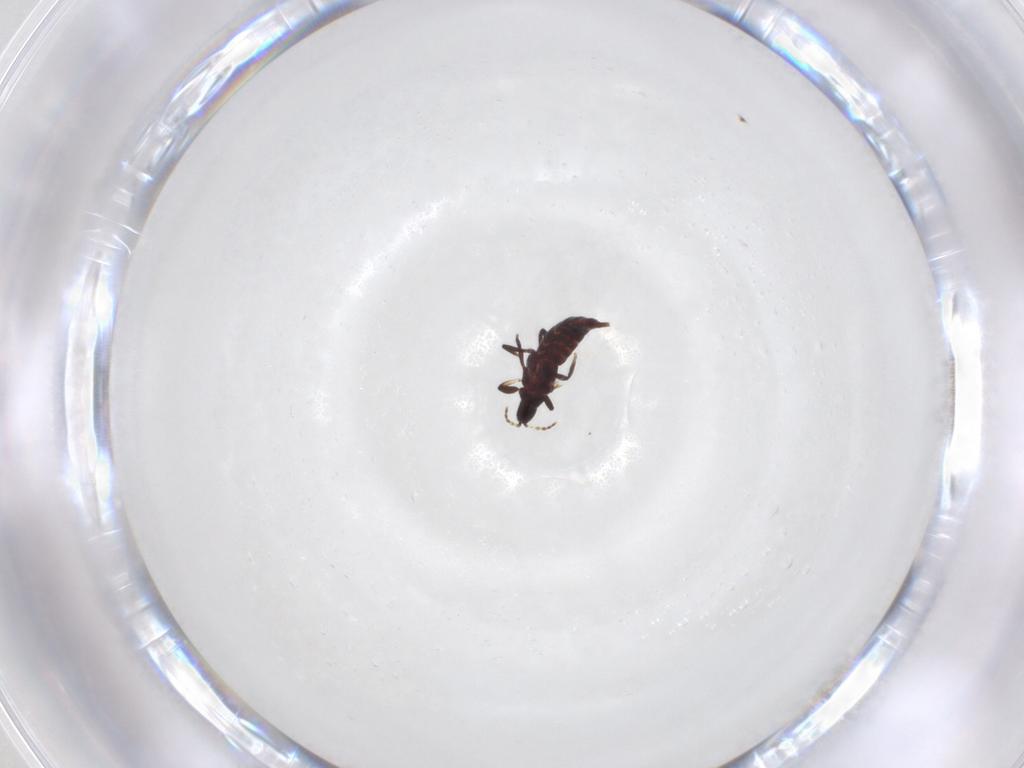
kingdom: Animalia
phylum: Arthropoda
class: Insecta
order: Thysanoptera
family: Phlaeothripidae
